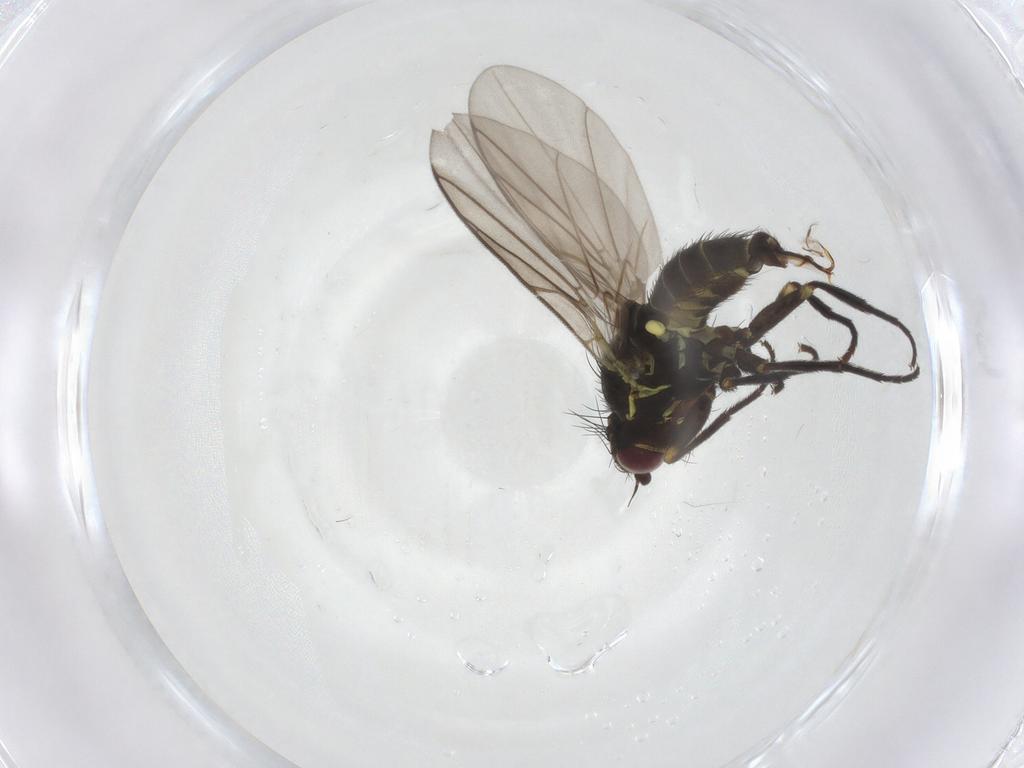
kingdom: Animalia
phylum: Arthropoda
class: Insecta
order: Diptera
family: Agromyzidae
